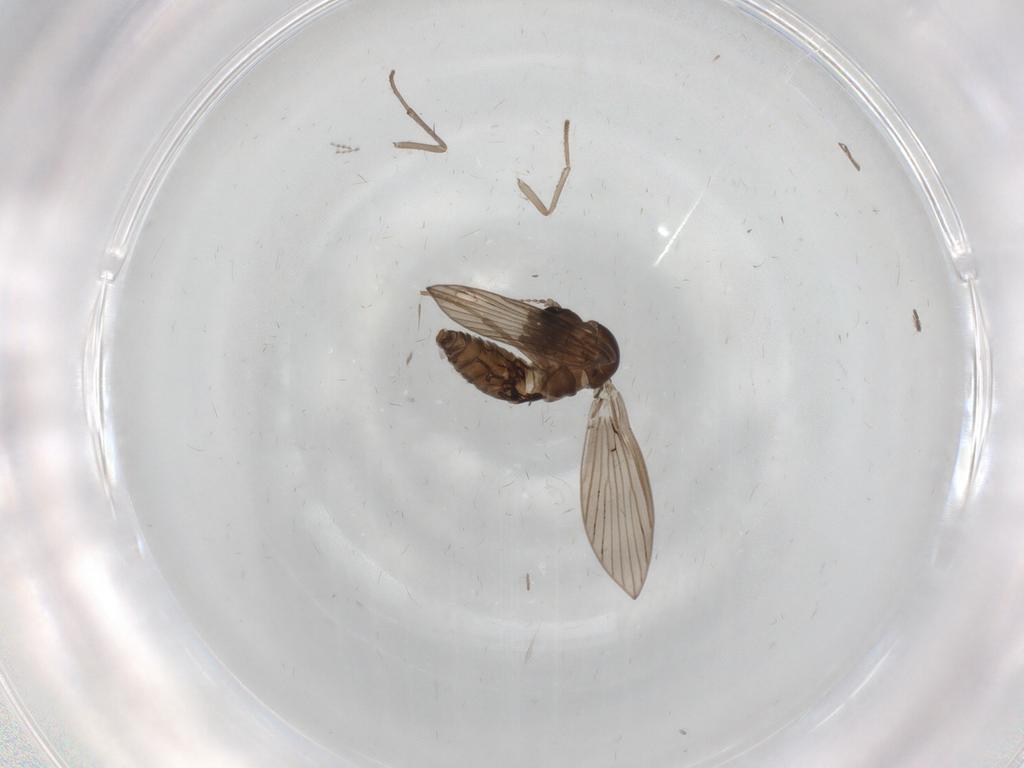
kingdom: Animalia
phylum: Arthropoda
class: Insecta
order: Diptera
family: Psychodidae
